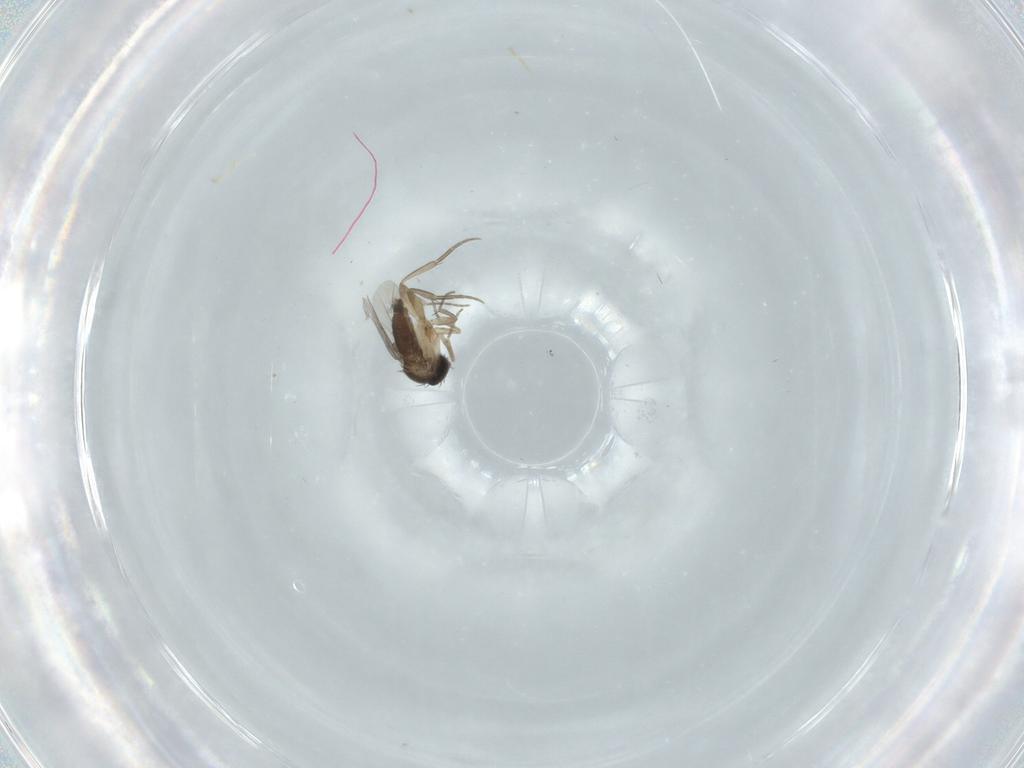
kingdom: Animalia
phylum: Arthropoda
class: Insecta
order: Diptera
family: Phoridae
